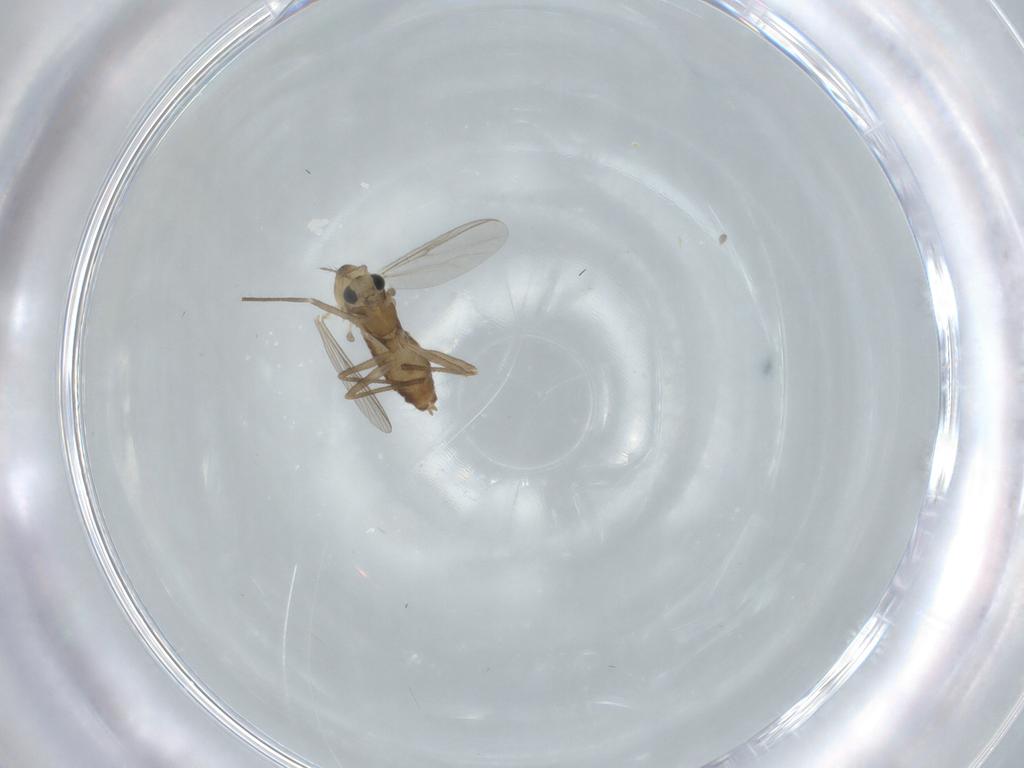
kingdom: Animalia
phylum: Arthropoda
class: Insecta
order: Diptera
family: Chironomidae
